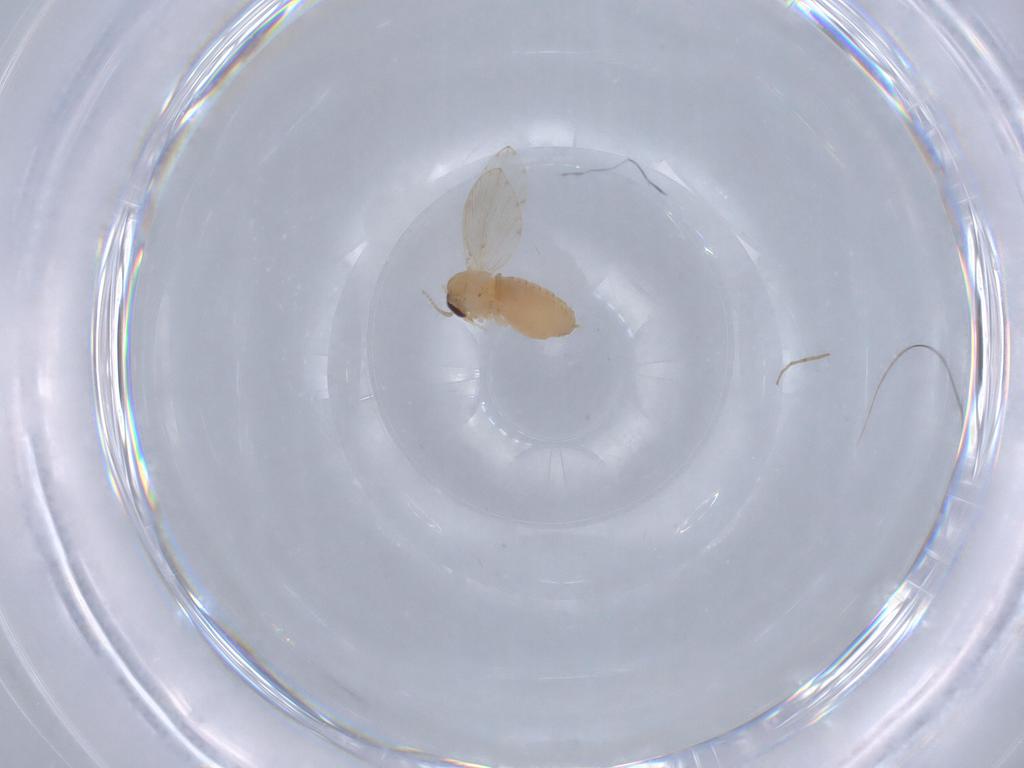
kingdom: Animalia
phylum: Arthropoda
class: Insecta
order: Diptera
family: Psychodidae
